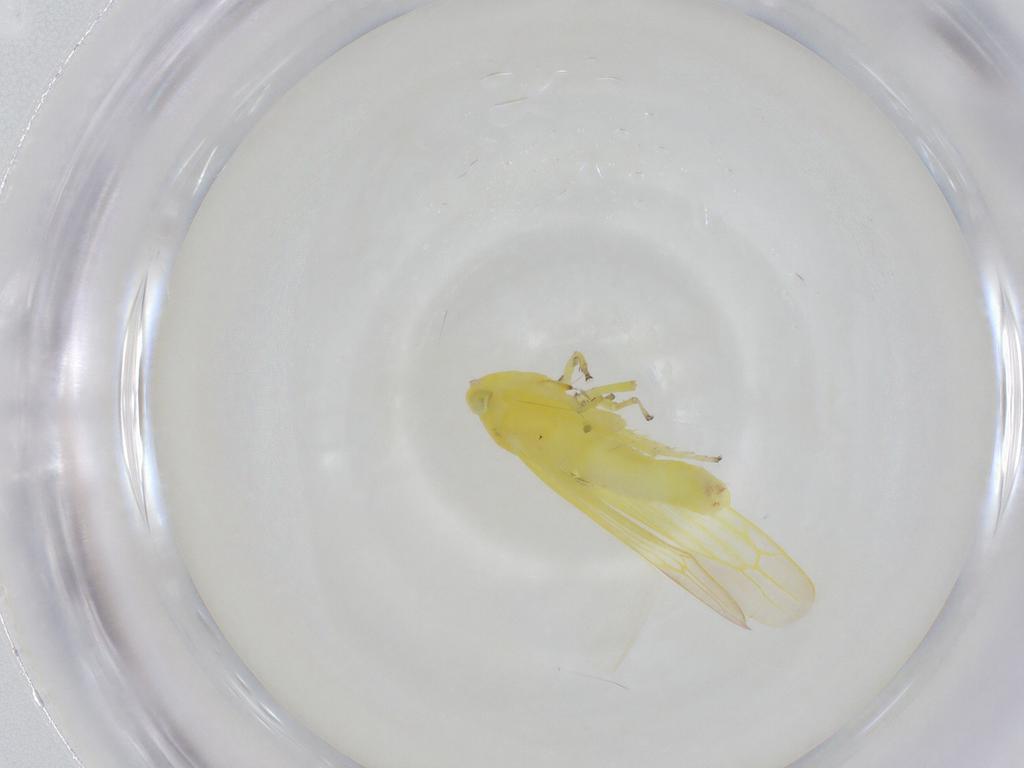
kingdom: Animalia
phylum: Arthropoda
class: Insecta
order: Hemiptera
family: Cicadellidae
